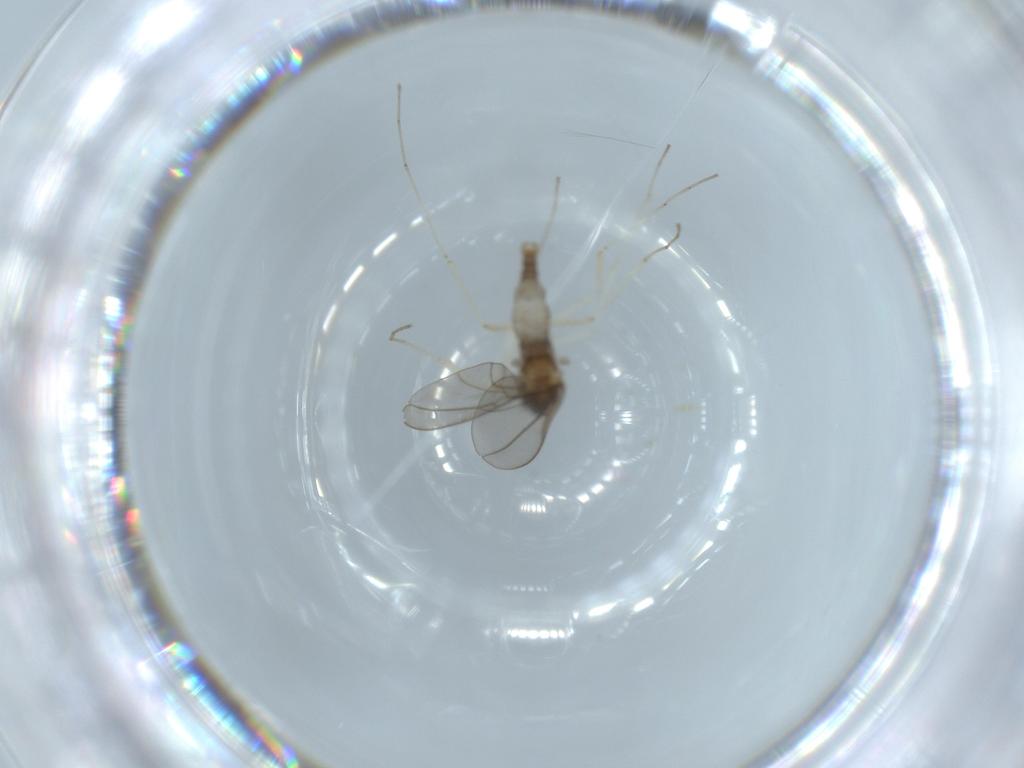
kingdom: Animalia
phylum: Arthropoda
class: Insecta
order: Diptera
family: Cecidomyiidae
